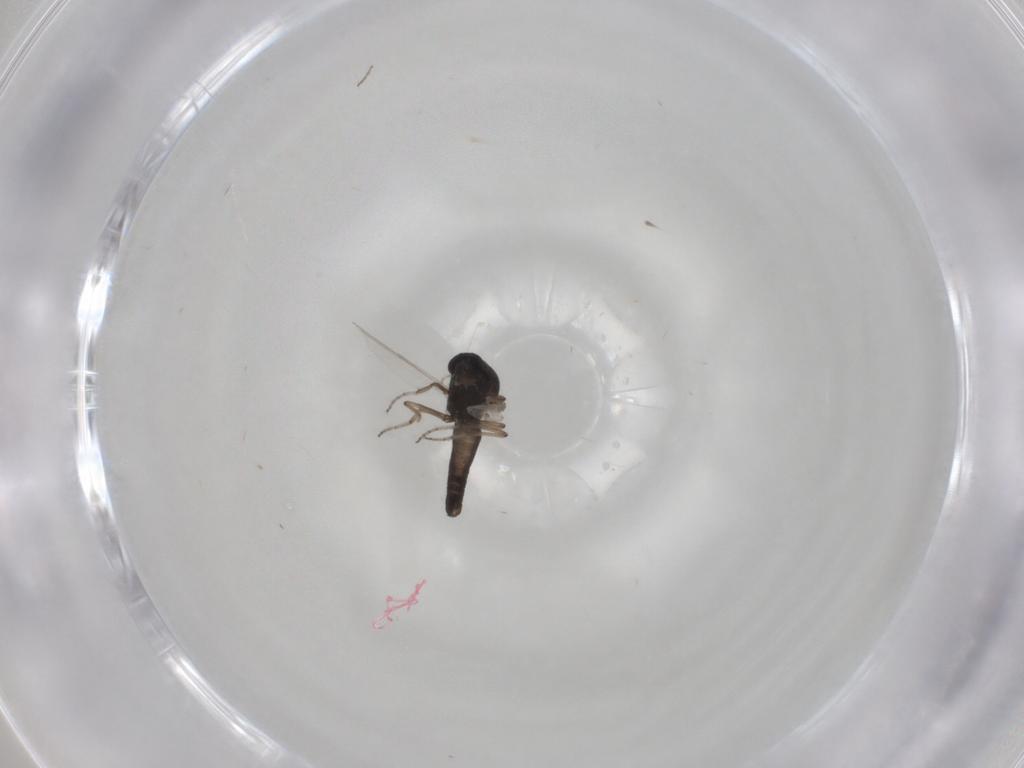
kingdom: Animalia
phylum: Arthropoda
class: Insecta
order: Diptera
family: Ceratopogonidae
